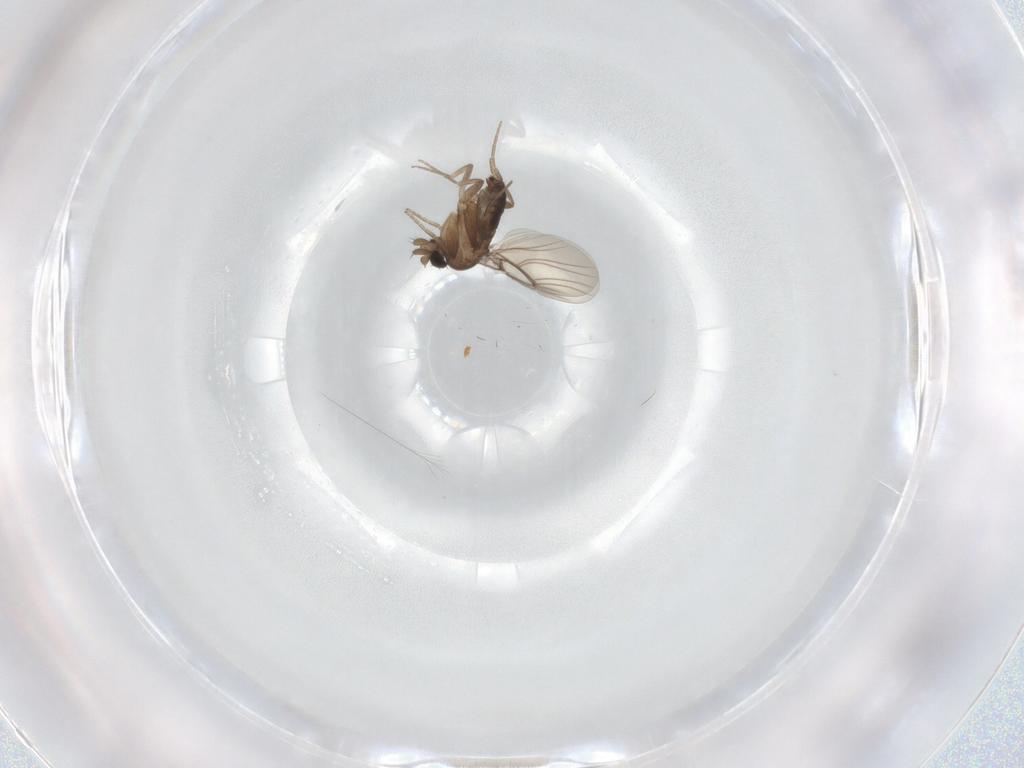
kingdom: Animalia
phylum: Arthropoda
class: Insecta
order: Diptera
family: Phoridae
